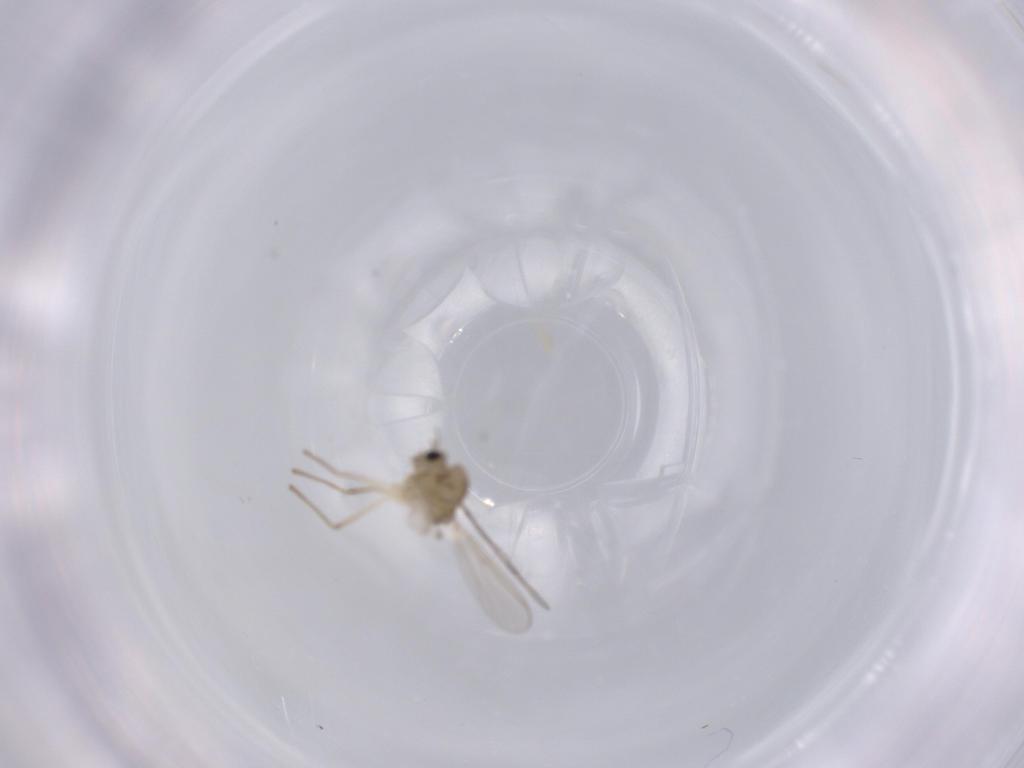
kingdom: Animalia
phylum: Arthropoda
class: Insecta
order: Diptera
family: Chironomidae
